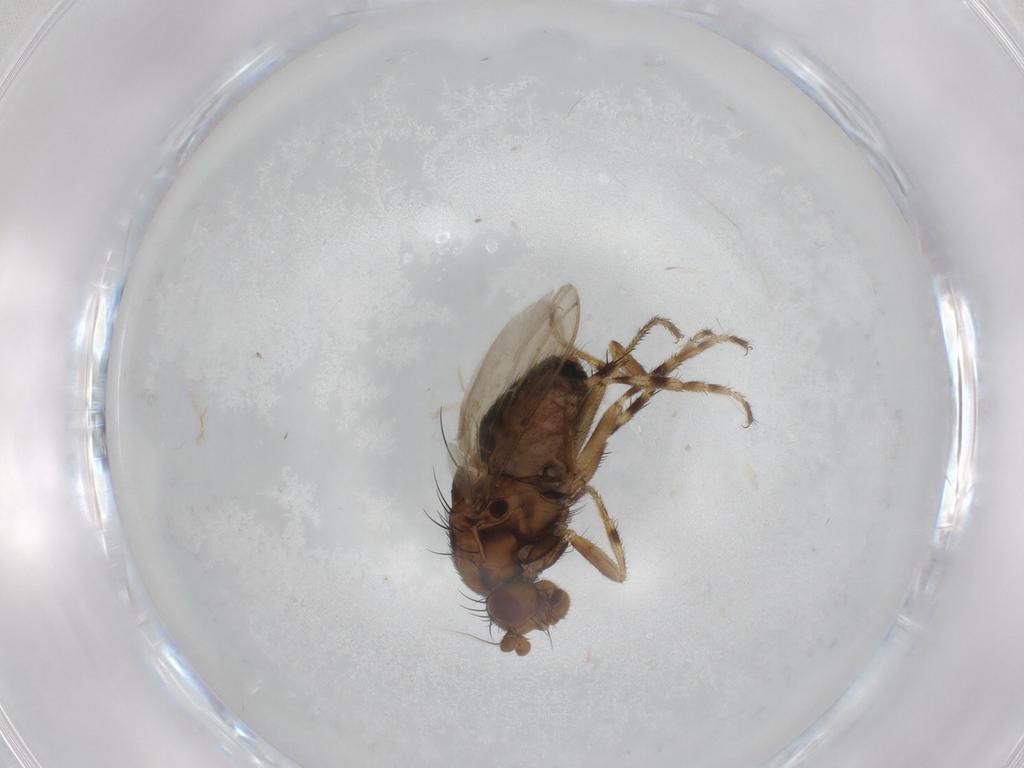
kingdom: Animalia
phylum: Arthropoda
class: Insecta
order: Diptera
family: Sphaeroceridae
